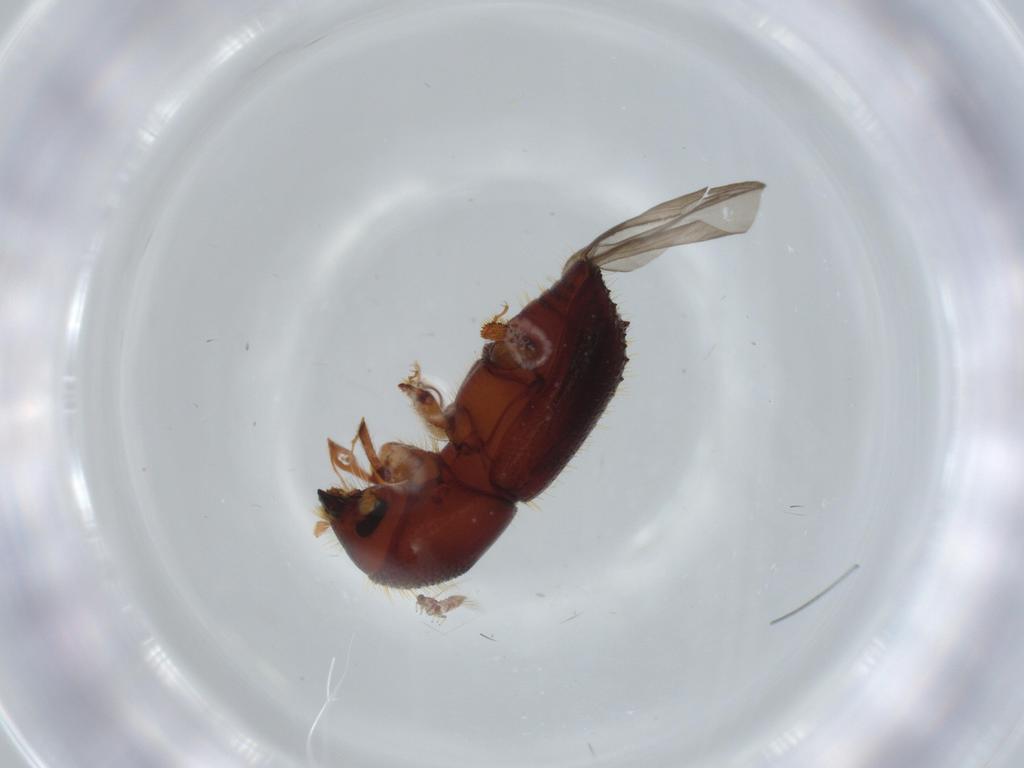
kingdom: Animalia
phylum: Arthropoda
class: Insecta
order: Coleoptera
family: Curculionidae
